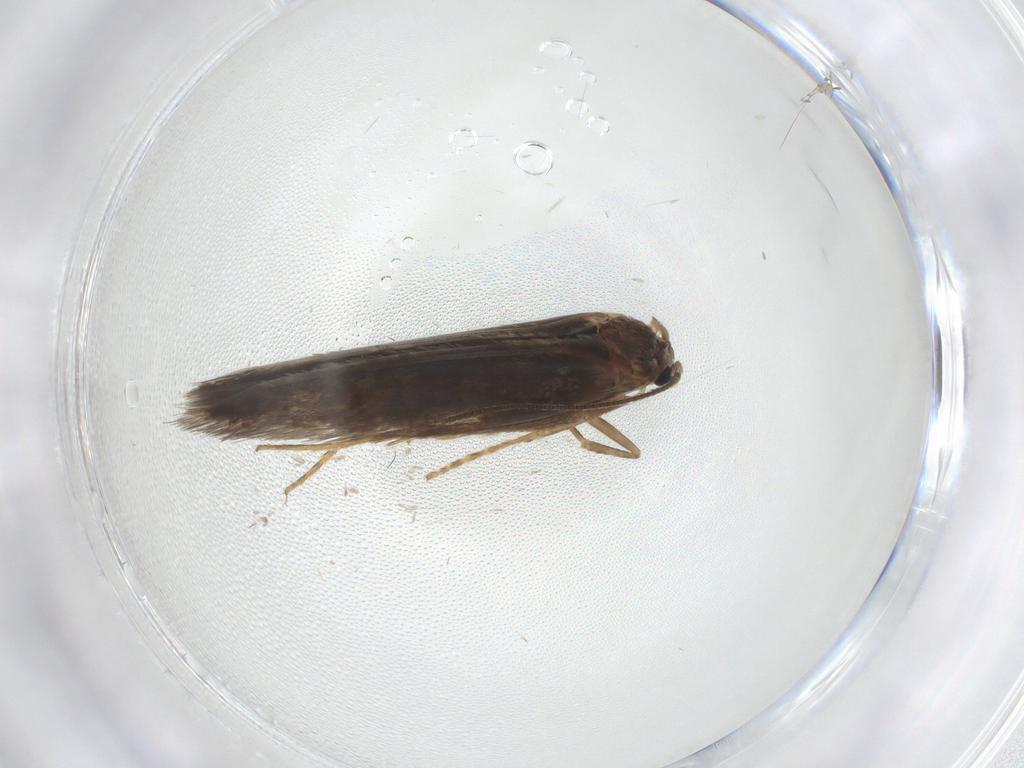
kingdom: Animalia
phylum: Arthropoda
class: Insecta
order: Lepidoptera
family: Nepticulidae
